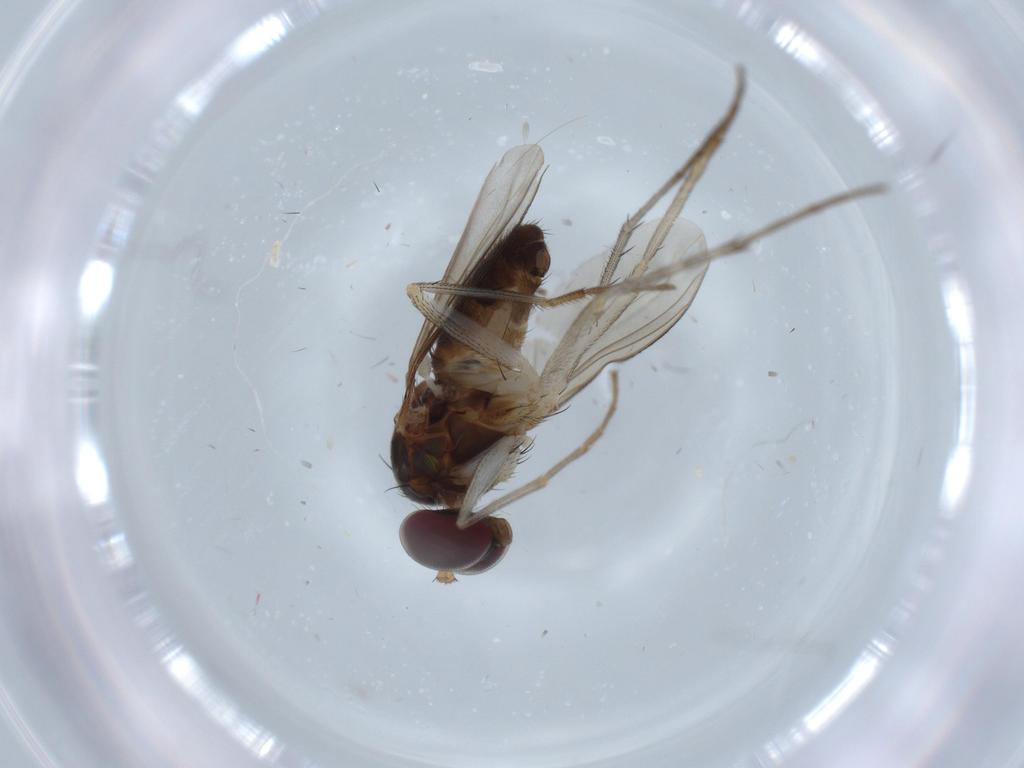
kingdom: Animalia
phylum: Arthropoda
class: Insecta
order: Diptera
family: Dolichopodidae
